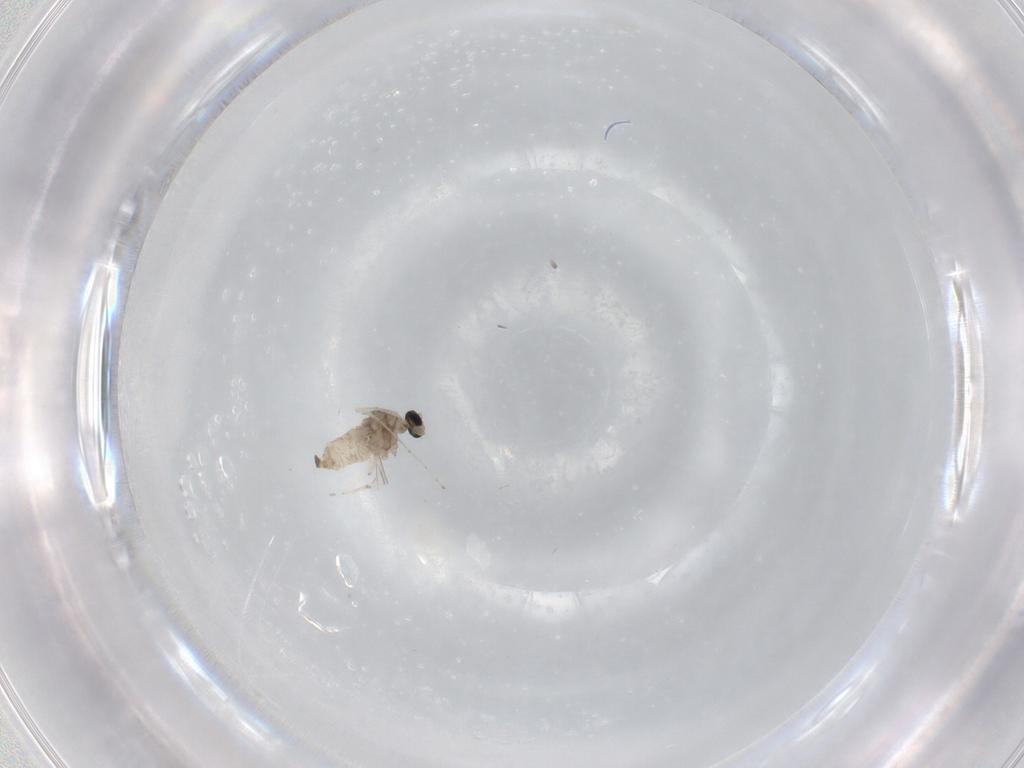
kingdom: Animalia
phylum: Arthropoda
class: Insecta
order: Diptera
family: Cecidomyiidae
